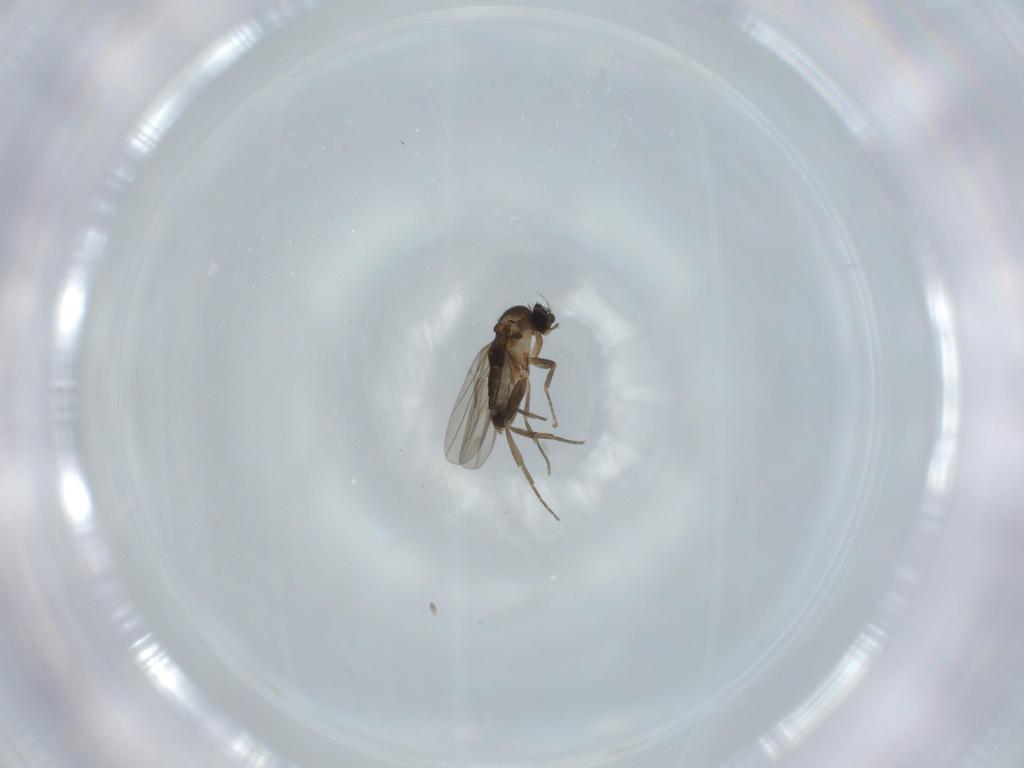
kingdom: Animalia
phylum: Arthropoda
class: Insecta
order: Diptera
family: Phoridae
